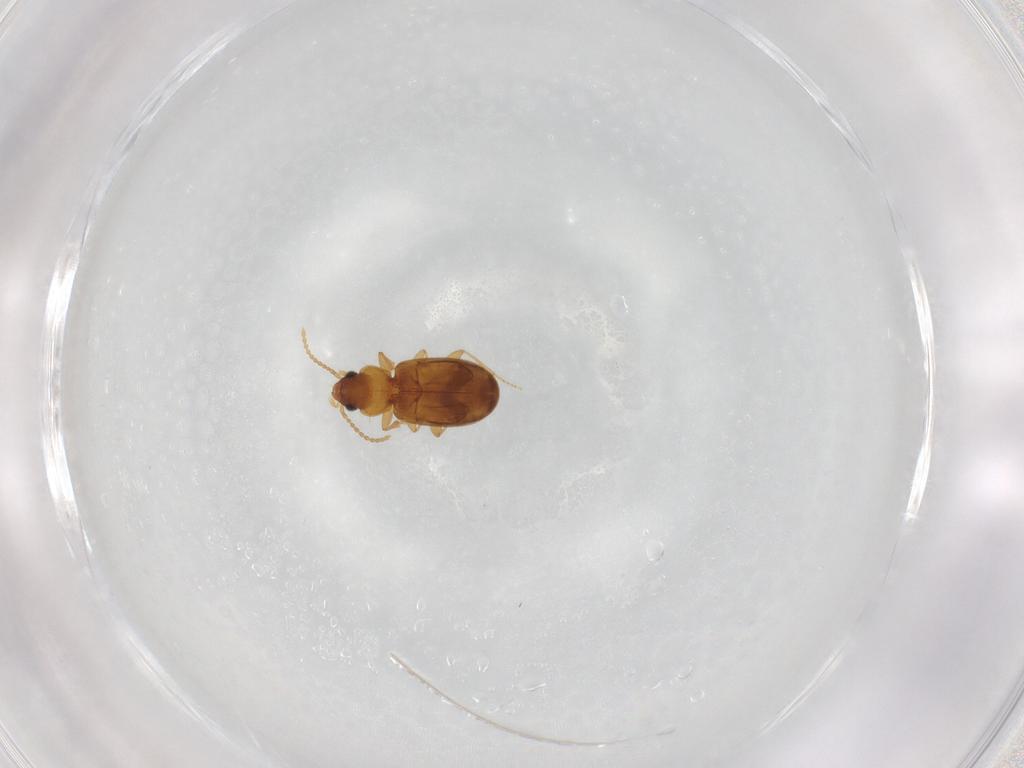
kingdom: Animalia
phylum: Arthropoda
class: Insecta
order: Coleoptera
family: Carabidae
